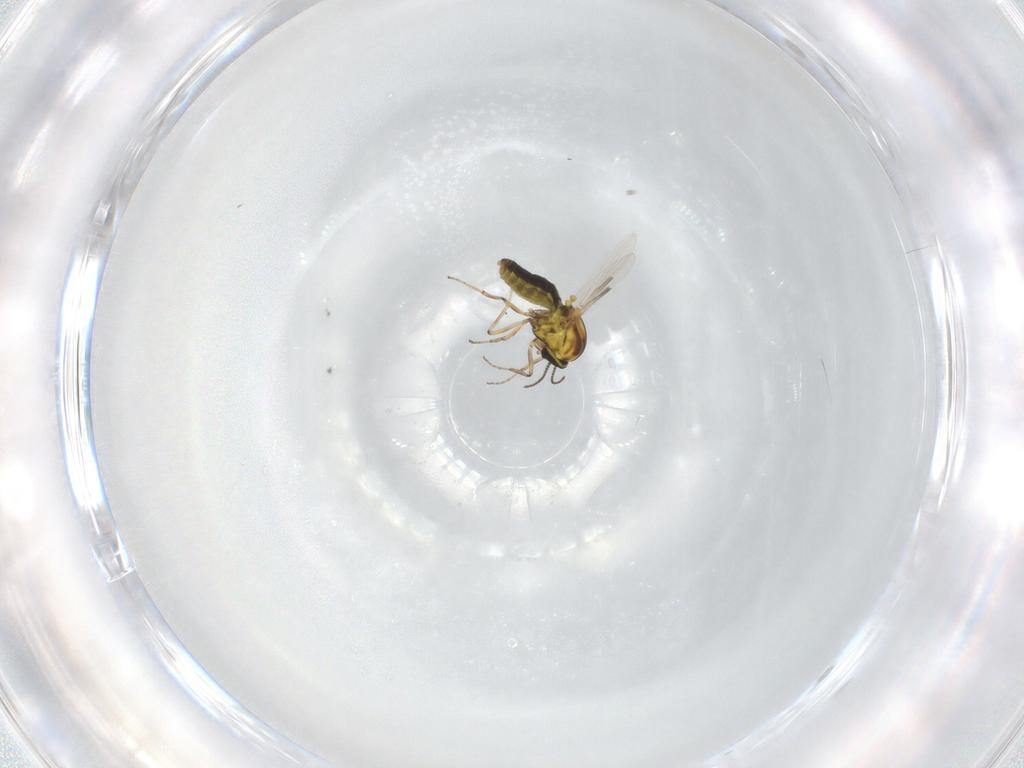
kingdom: Animalia
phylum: Arthropoda
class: Insecta
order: Diptera
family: Ceratopogonidae
